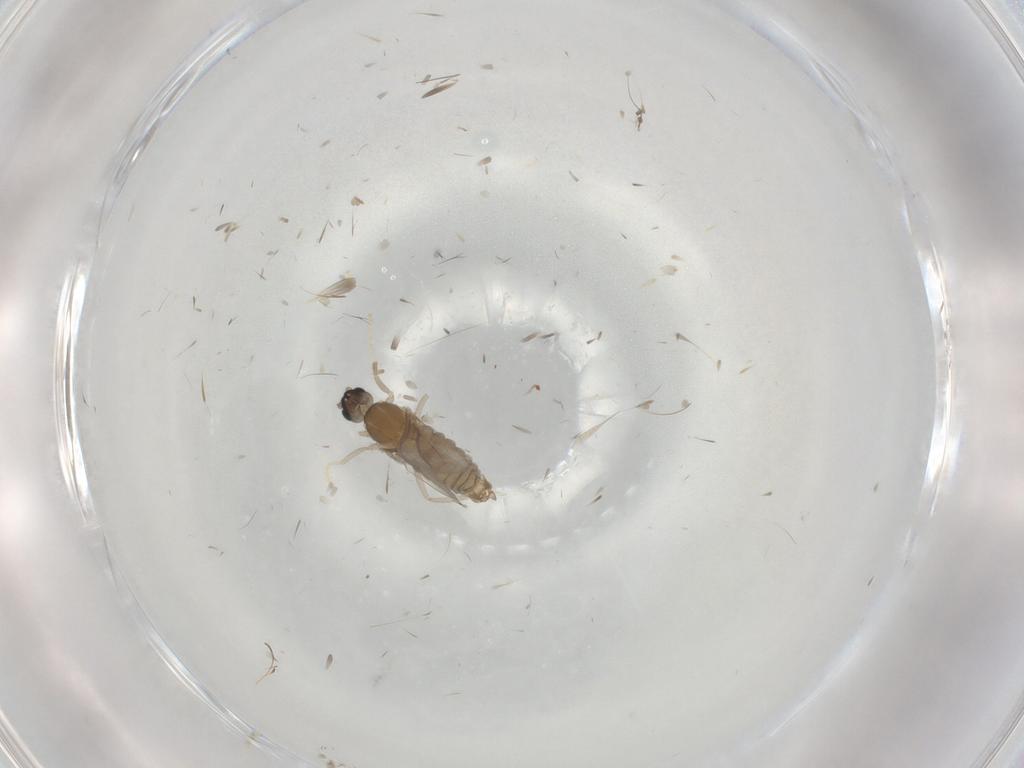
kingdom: Animalia
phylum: Arthropoda
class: Insecta
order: Diptera
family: Cecidomyiidae
